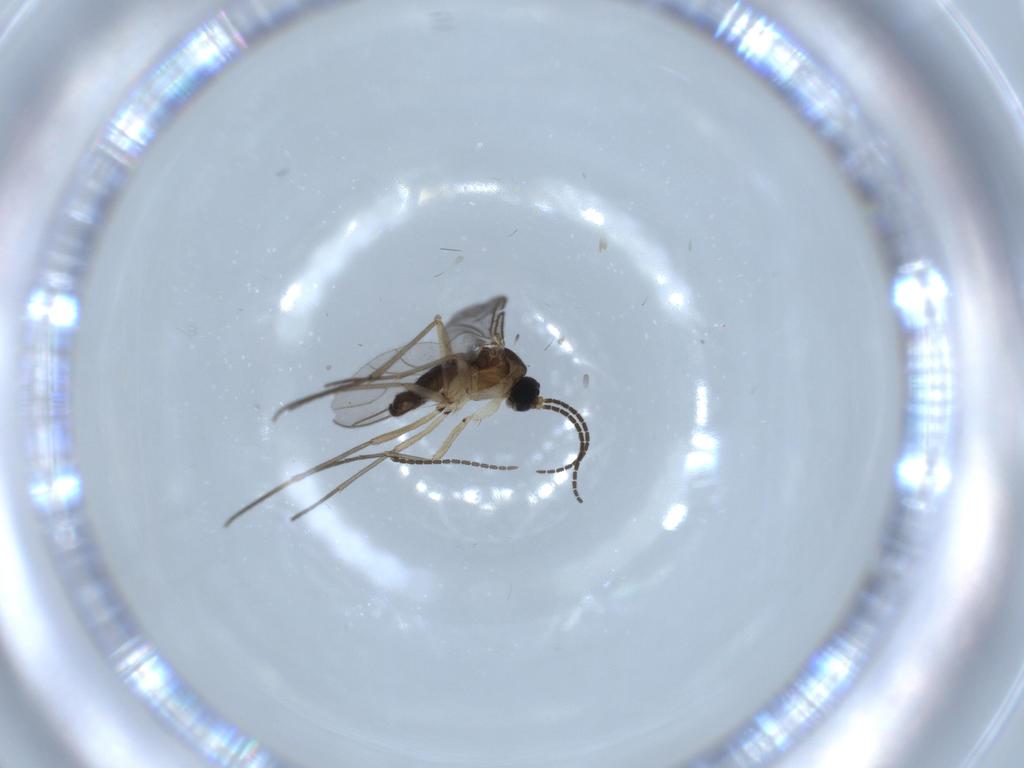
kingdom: Animalia
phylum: Arthropoda
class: Insecta
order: Diptera
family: Sciaridae
